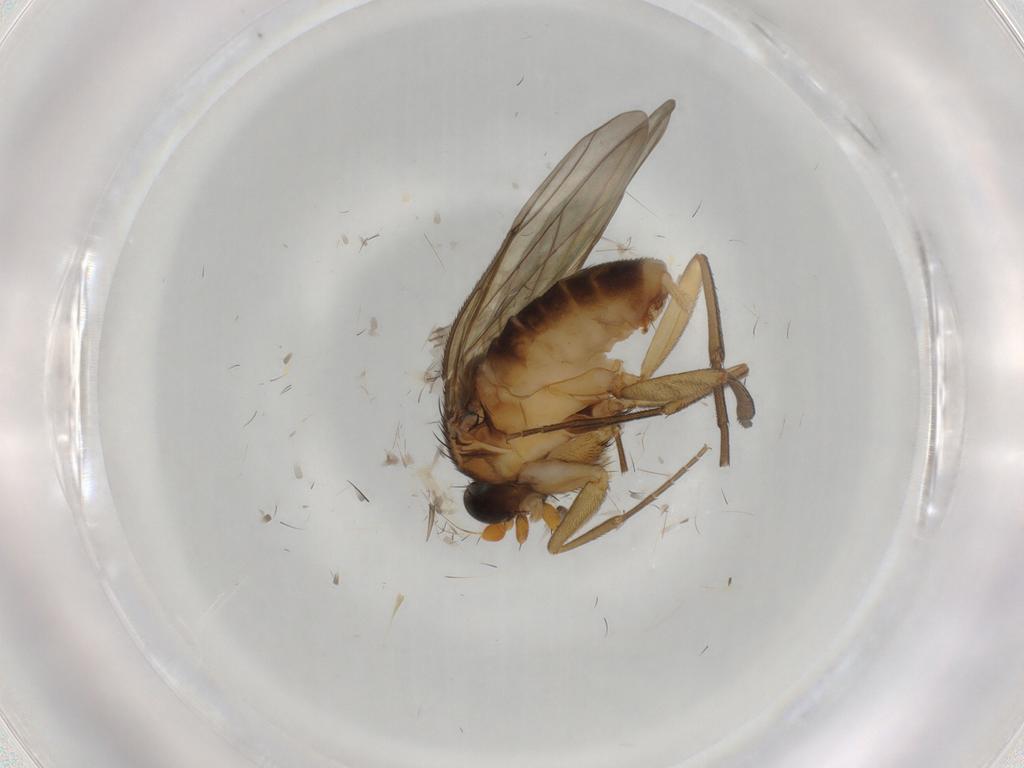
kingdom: Animalia
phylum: Arthropoda
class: Insecta
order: Diptera
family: Phoridae
